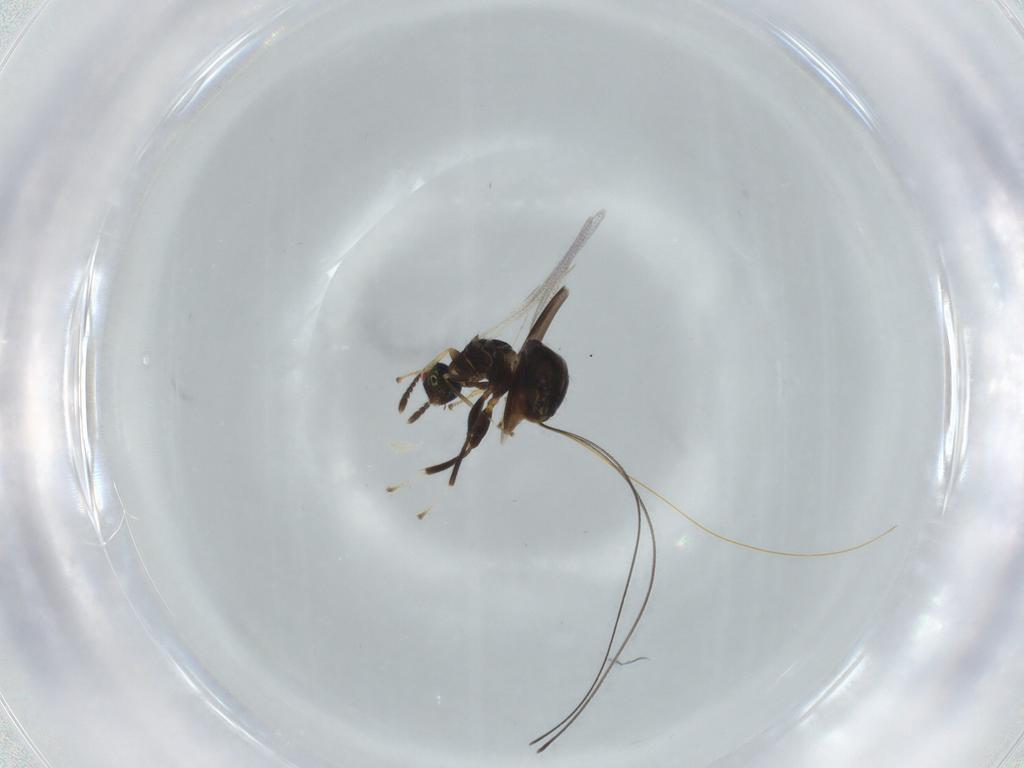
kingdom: Animalia
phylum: Arthropoda
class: Insecta
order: Hymenoptera
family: Torymidae
